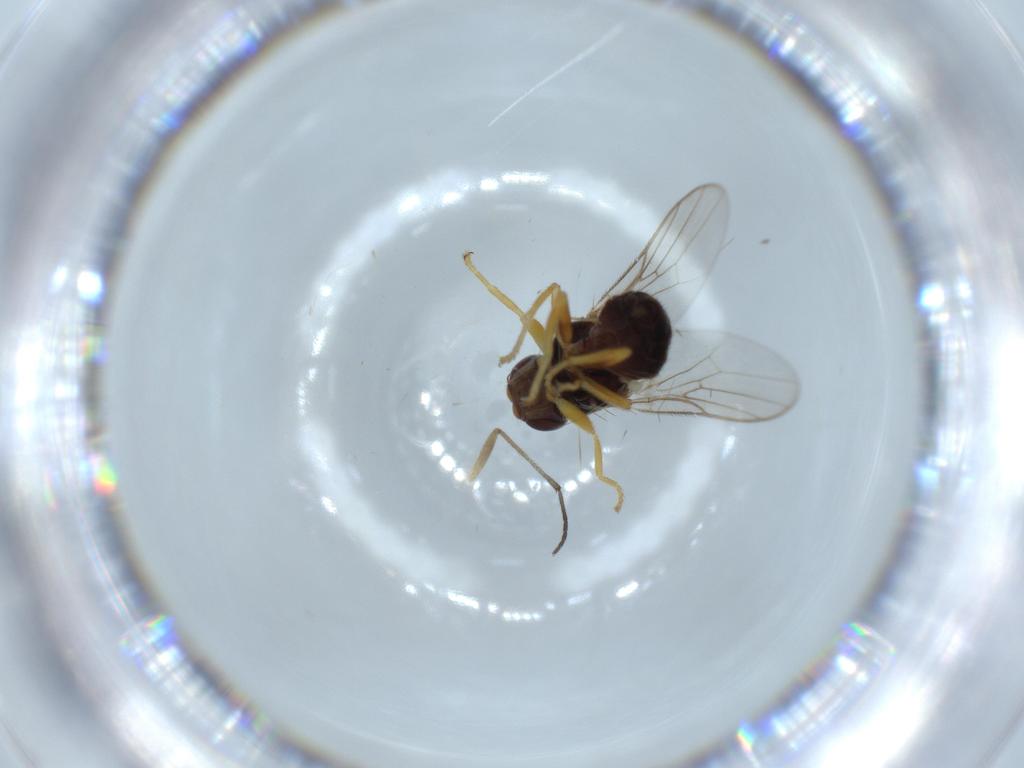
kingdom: Animalia
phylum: Arthropoda
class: Insecta
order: Diptera
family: Chloropidae
